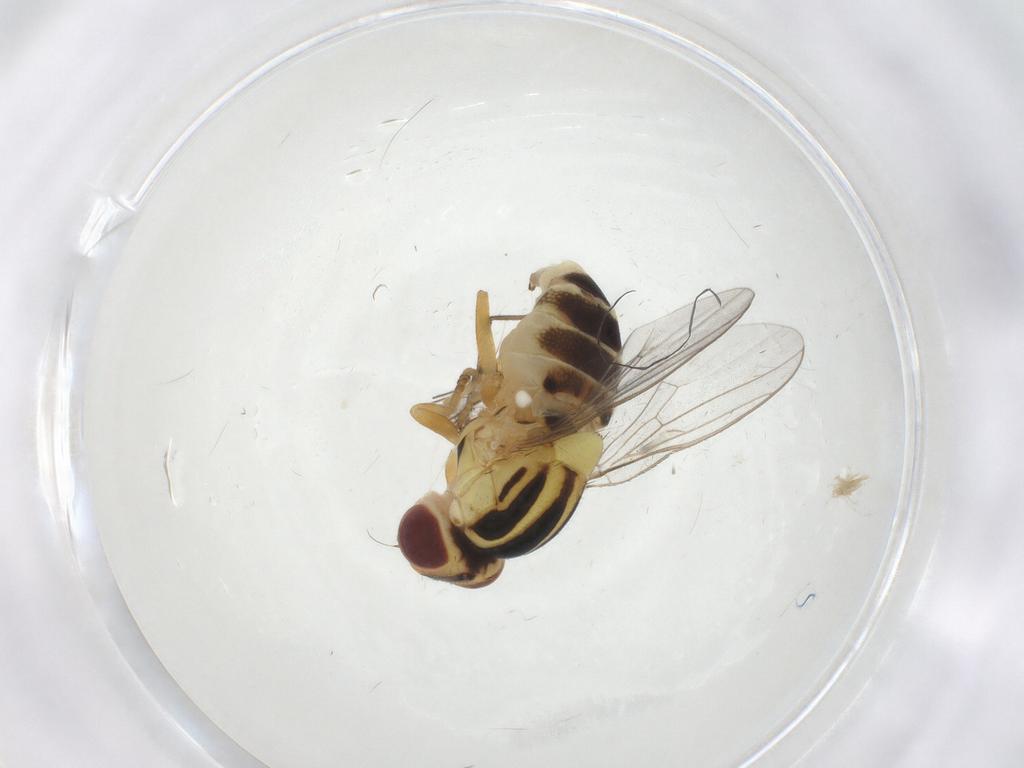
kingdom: Animalia
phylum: Arthropoda
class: Insecta
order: Diptera
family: Chloropidae
